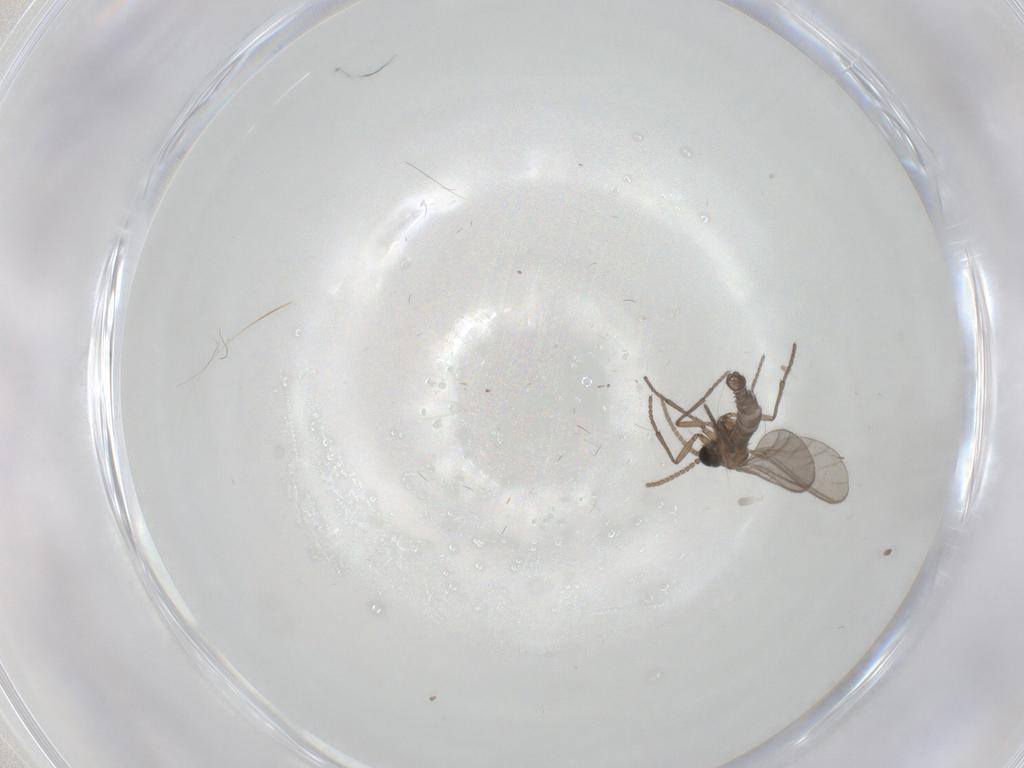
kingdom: Animalia
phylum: Arthropoda
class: Insecta
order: Diptera
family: Sciaridae
